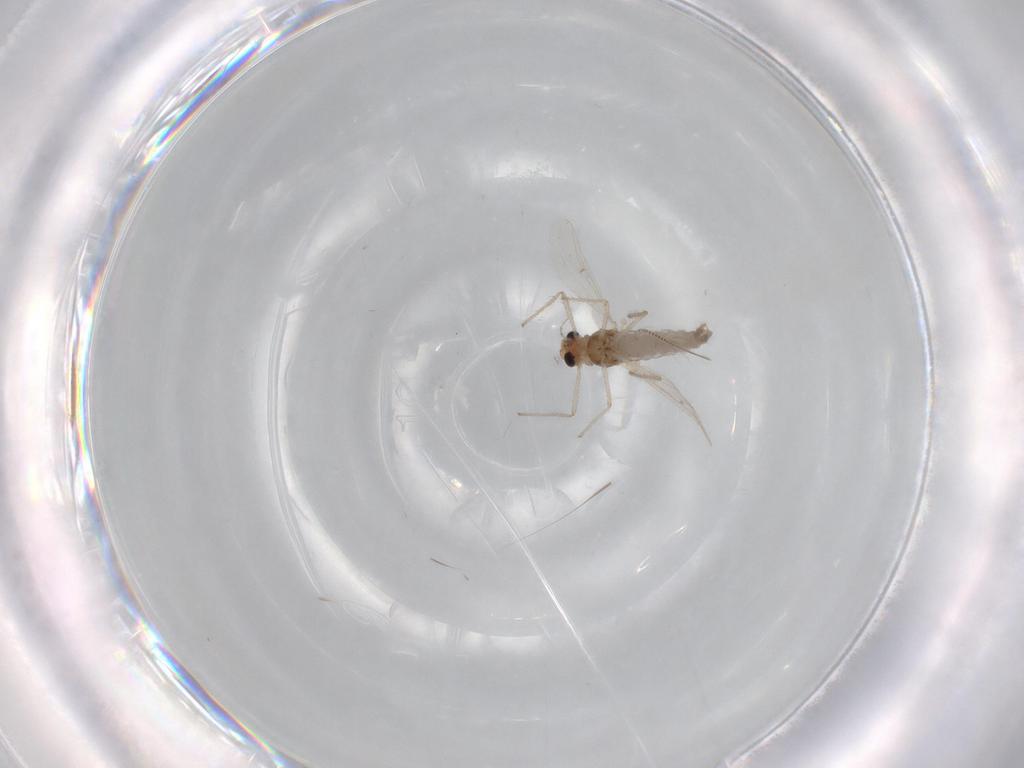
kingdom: Animalia
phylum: Arthropoda
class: Insecta
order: Diptera
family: Chironomidae
